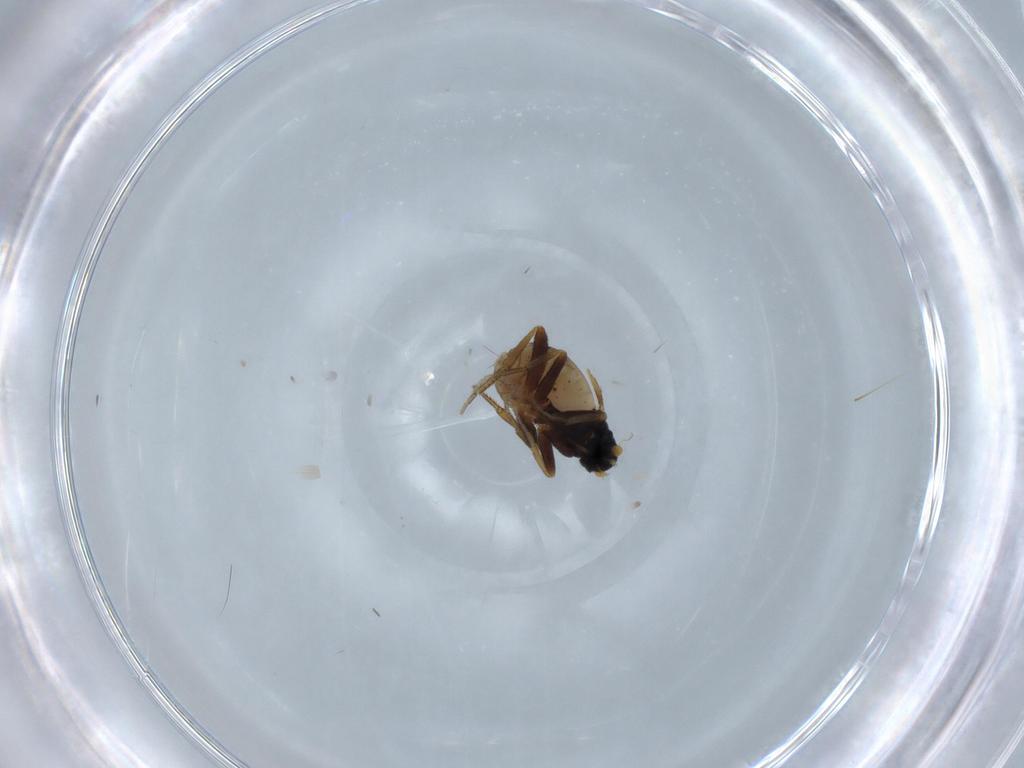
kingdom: Animalia
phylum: Arthropoda
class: Insecta
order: Diptera
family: Phoridae
